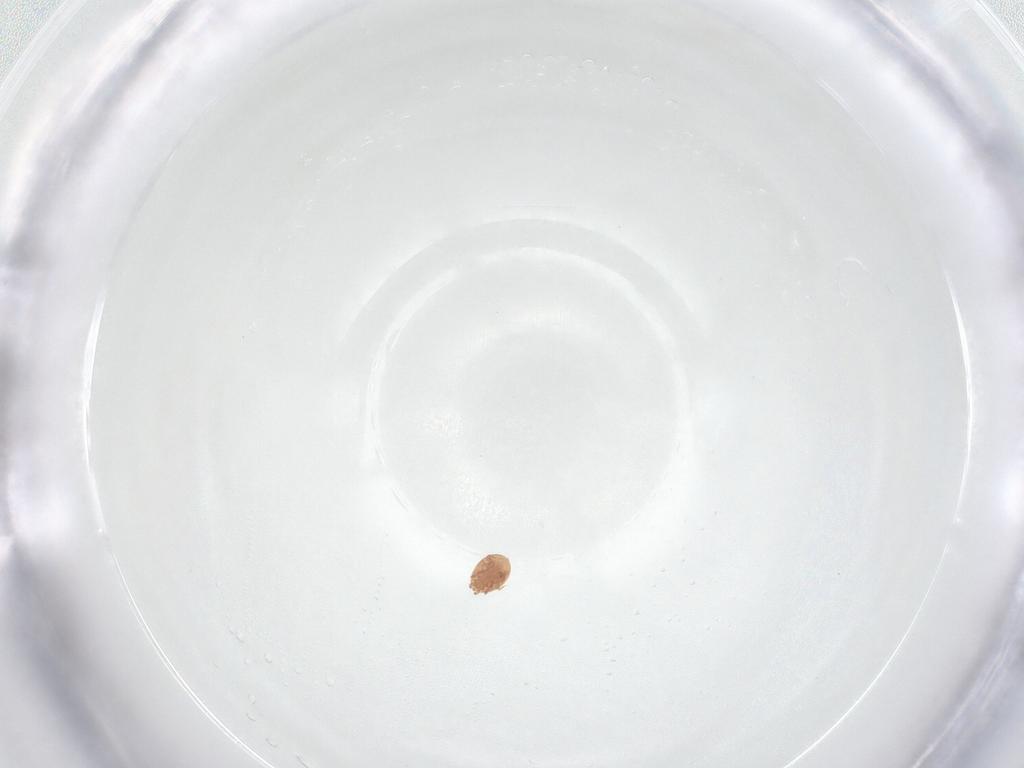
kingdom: Animalia
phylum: Arthropoda
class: Arachnida
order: Mesostigmata
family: Trematuridae
